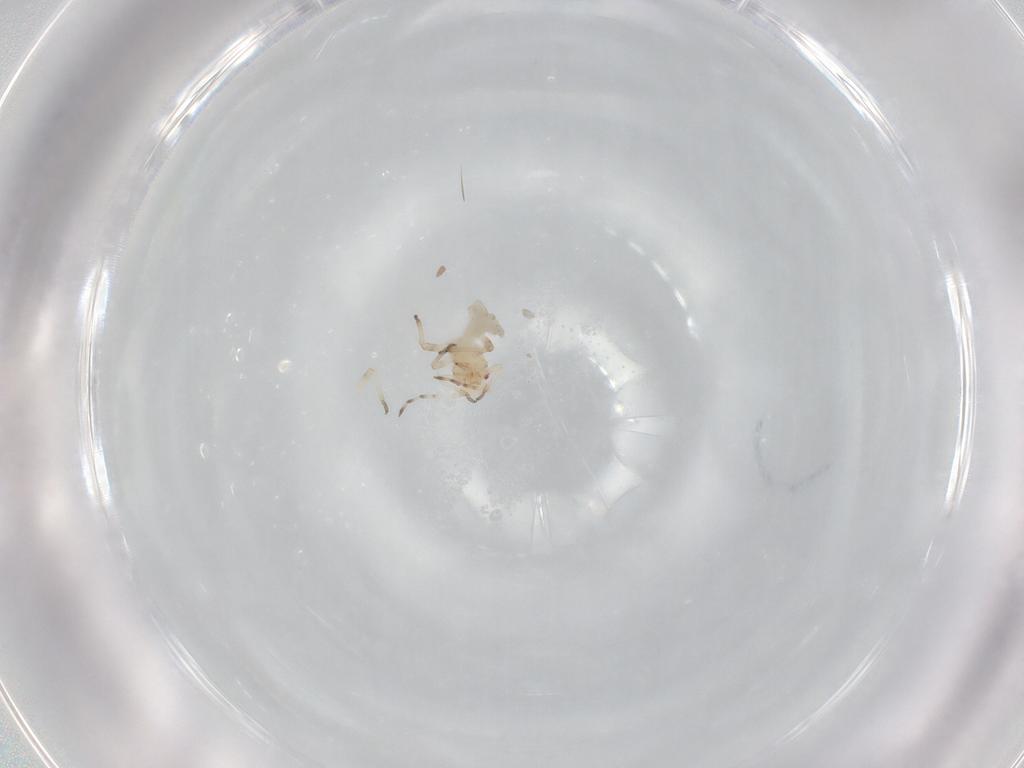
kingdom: Animalia
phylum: Arthropoda
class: Insecta
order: Hemiptera
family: Aphididae
